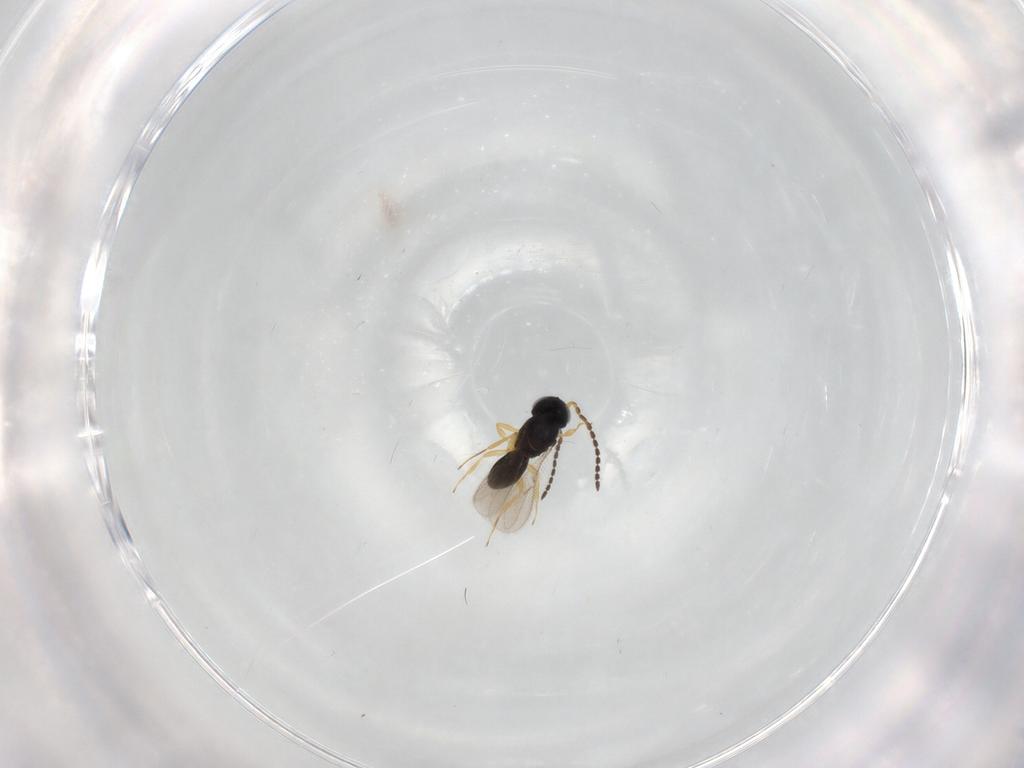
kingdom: Animalia
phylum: Arthropoda
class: Insecta
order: Hymenoptera
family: Scelionidae
